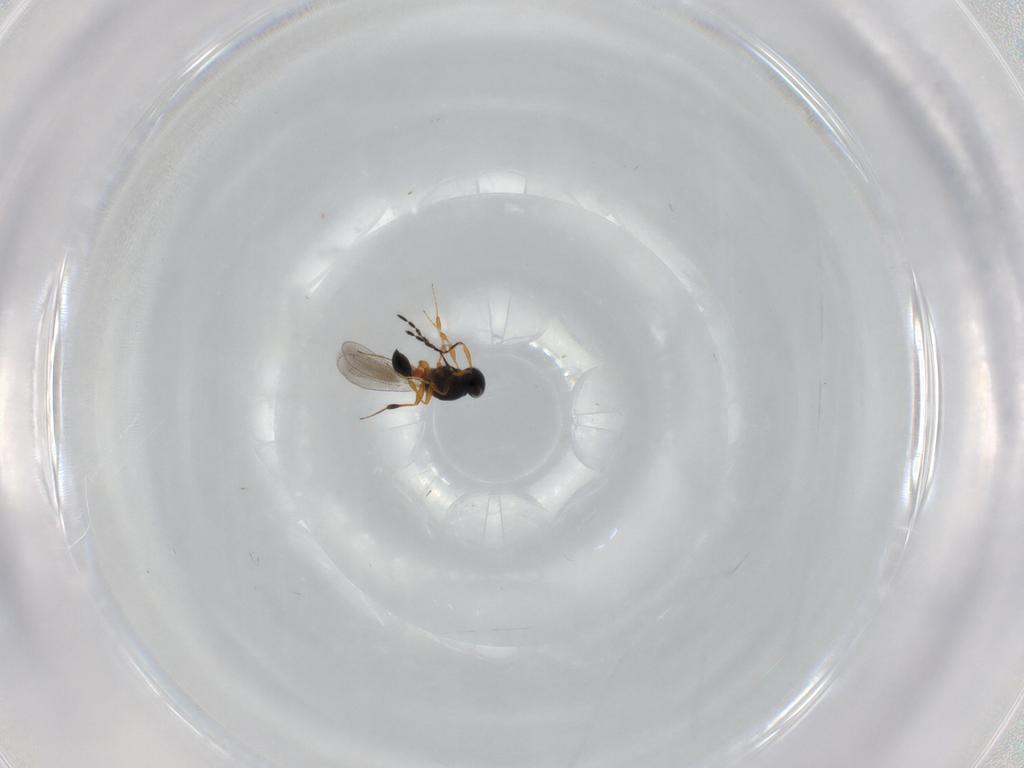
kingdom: Animalia
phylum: Arthropoda
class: Insecta
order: Hymenoptera
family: Platygastridae
